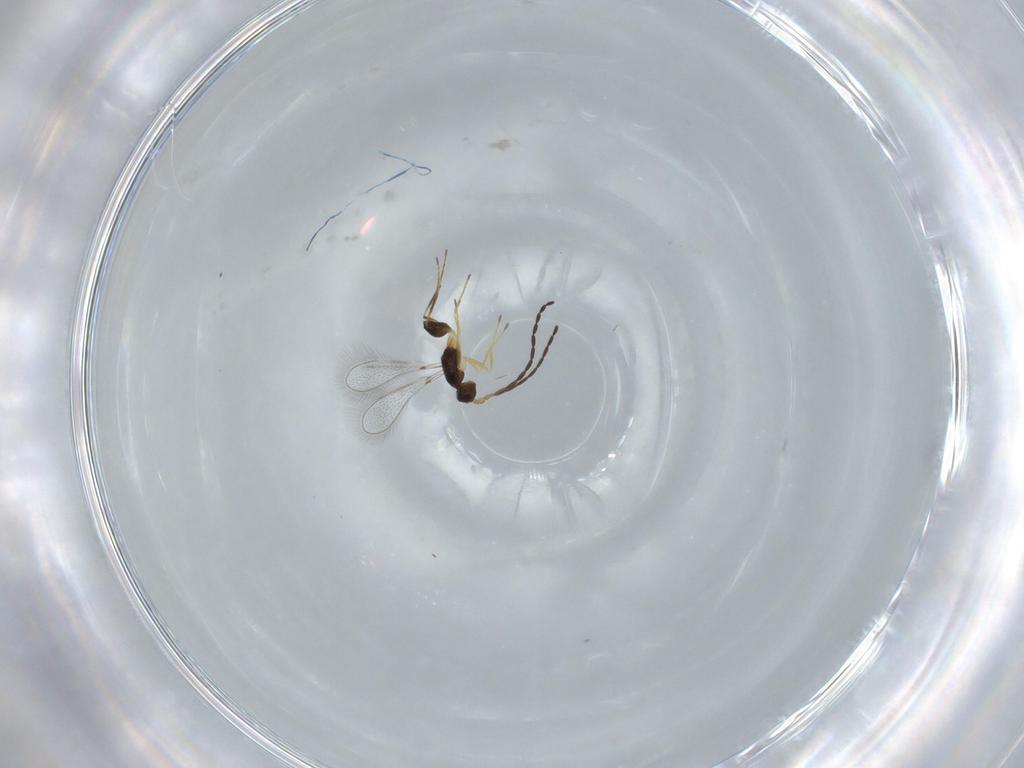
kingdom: Animalia
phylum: Arthropoda
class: Insecta
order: Hymenoptera
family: Mymaridae
